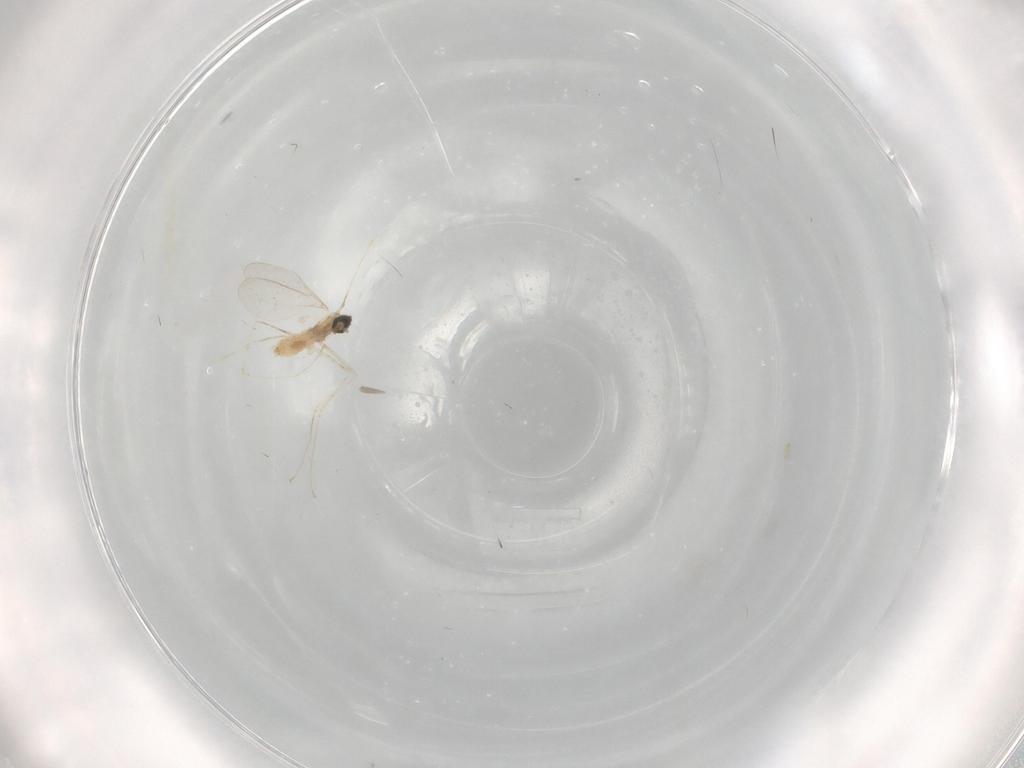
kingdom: Animalia
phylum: Arthropoda
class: Insecta
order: Diptera
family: Cecidomyiidae
